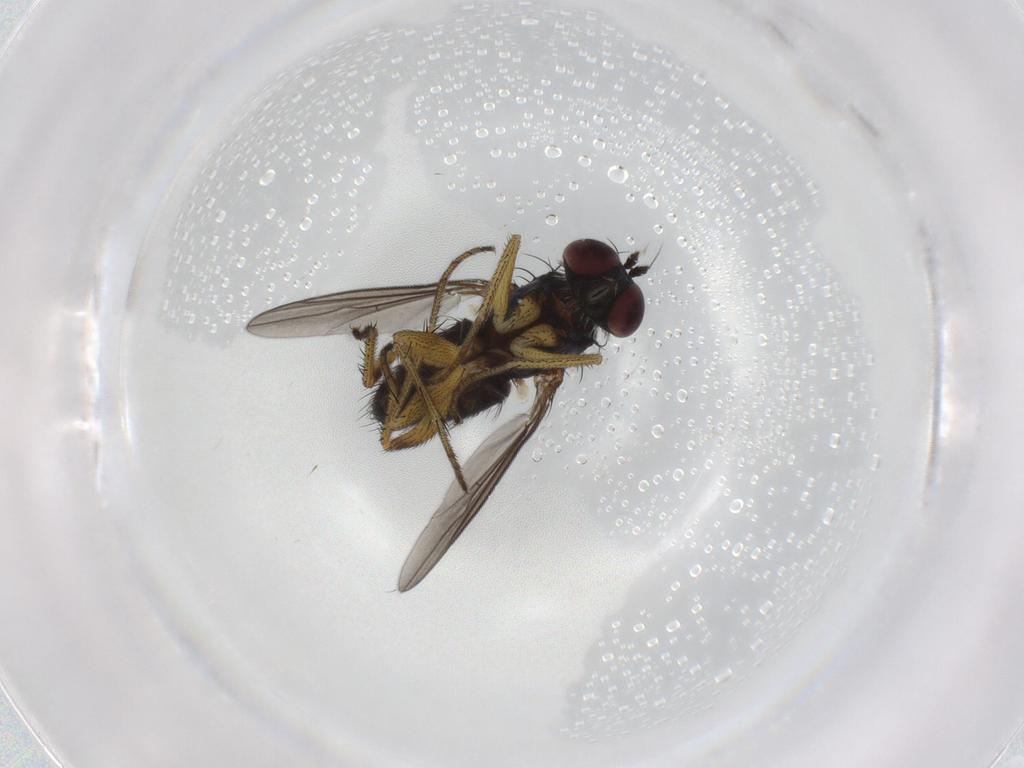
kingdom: Animalia
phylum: Arthropoda
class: Insecta
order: Diptera
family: Dolichopodidae
